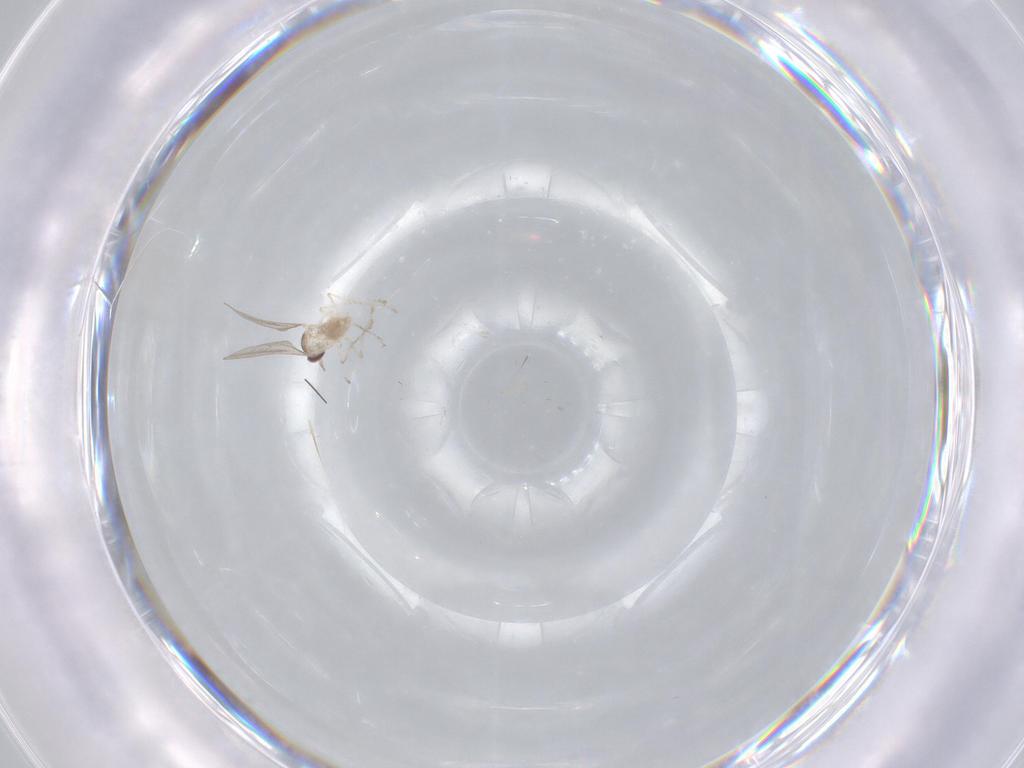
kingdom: Animalia
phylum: Arthropoda
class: Insecta
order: Diptera
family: Cecidomyiidae
